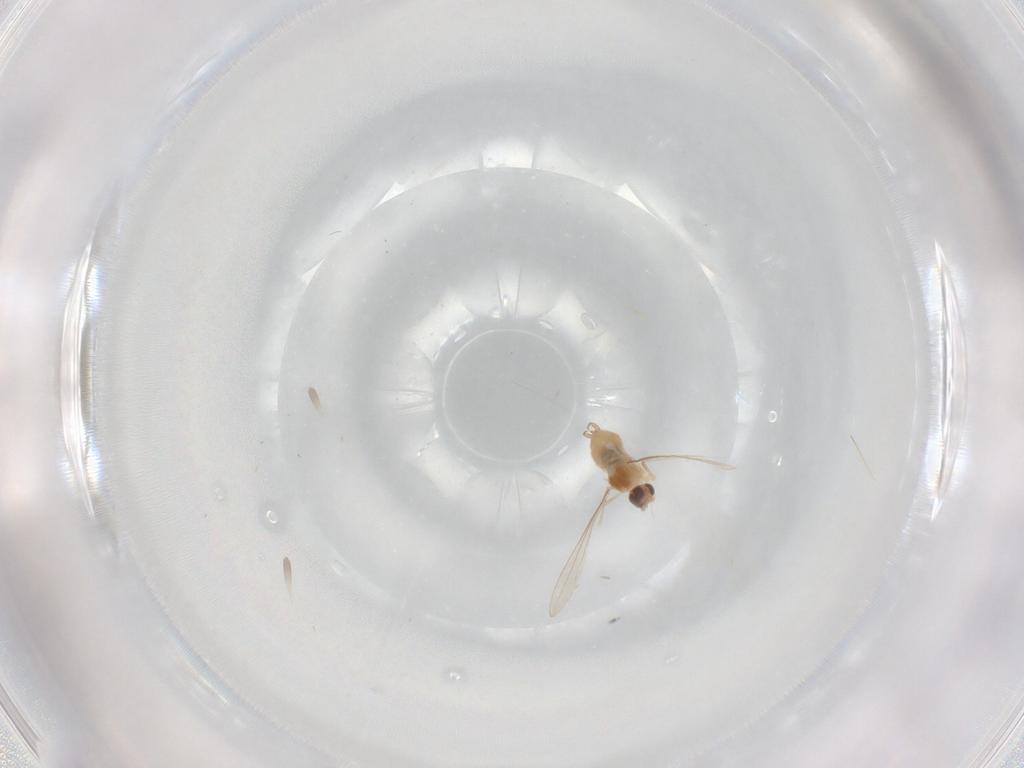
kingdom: Animalia
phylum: Arthropoda
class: Insecta
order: Diptera
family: Cecidomyiidae
